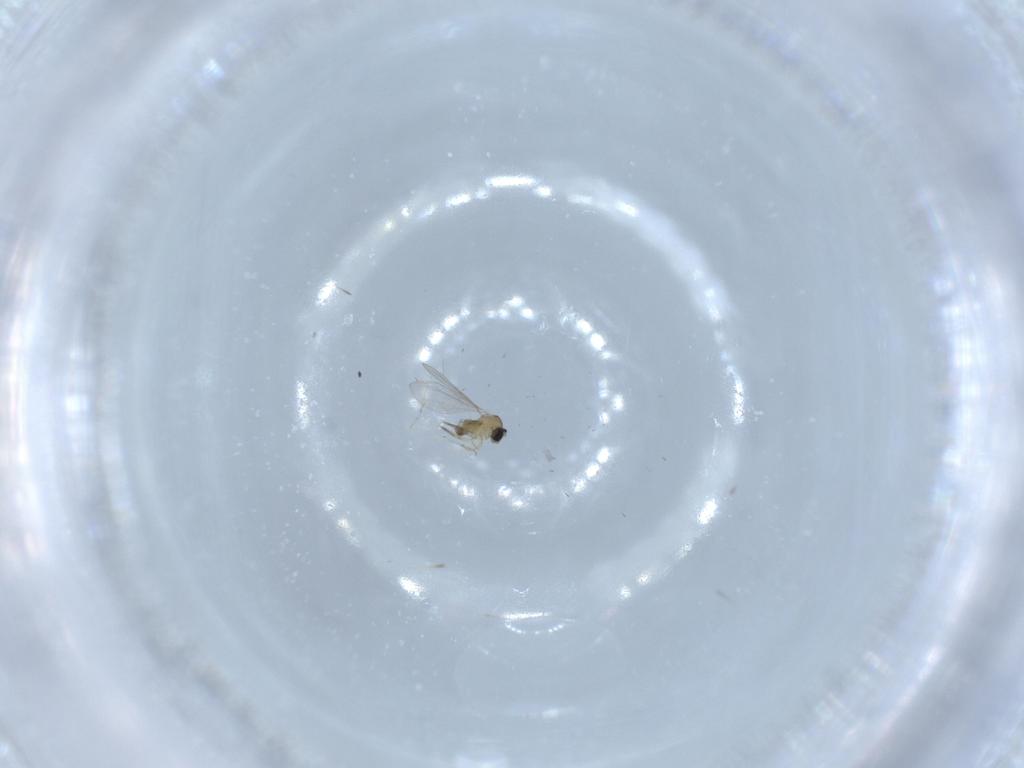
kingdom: Animalia
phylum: Arthropoda
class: Insecta
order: Diptera
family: Cecidomyiidae
